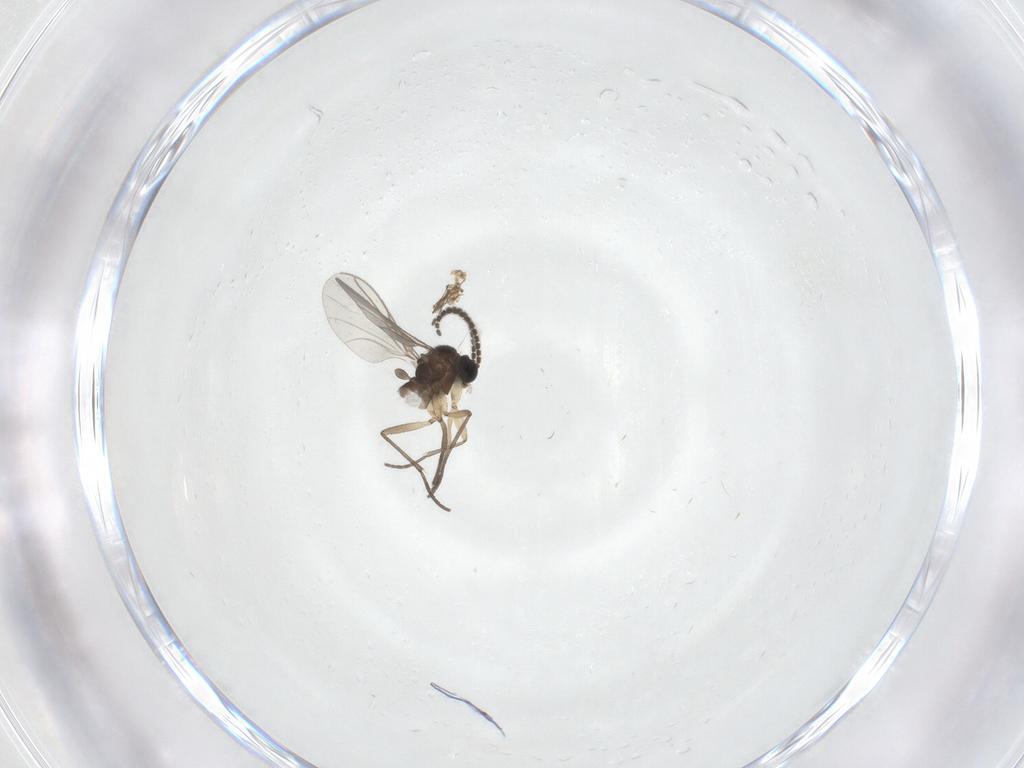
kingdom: Animalia
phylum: Arthropoda
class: Insecta
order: Diptera
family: Sciaridae
